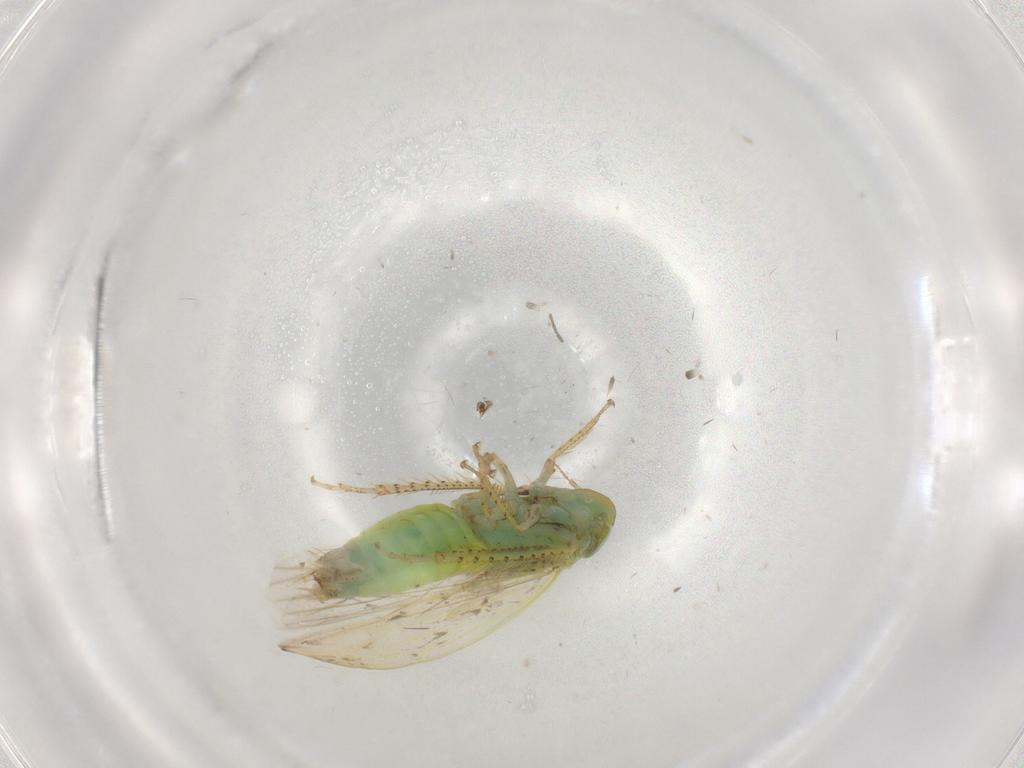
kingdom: Animalia
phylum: Arthropoda
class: Insecta
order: Hemiptera
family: Cicadellidae
